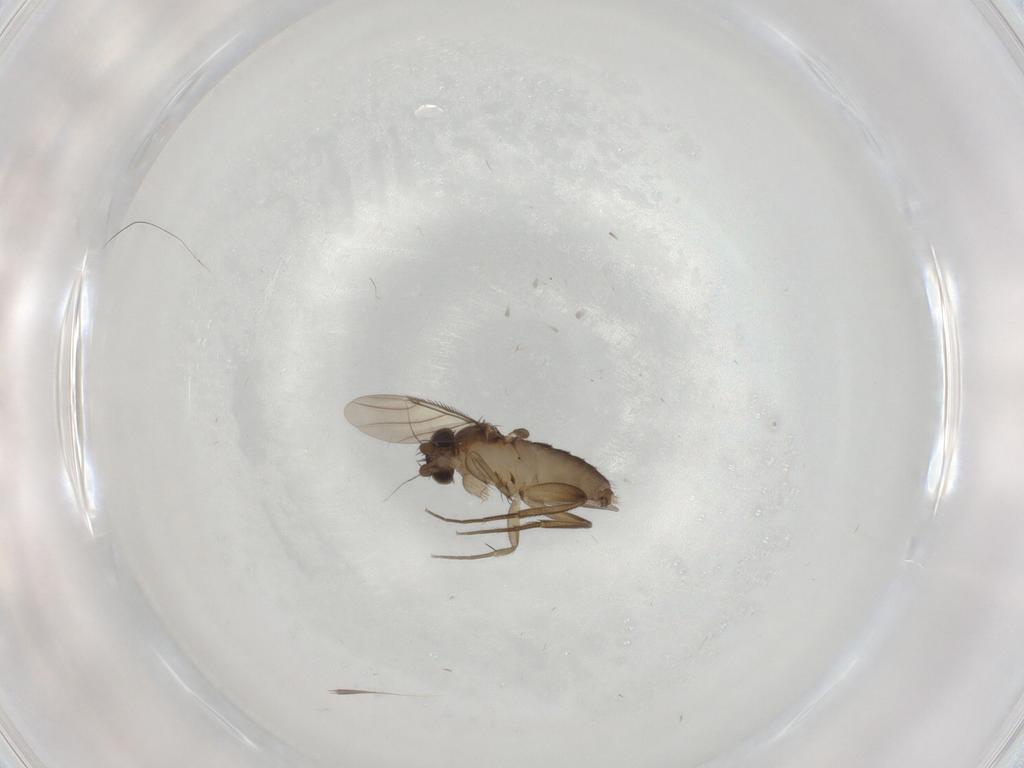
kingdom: Animalia
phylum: Arthropoda
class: Insecta
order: Diptera
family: Phoridae
